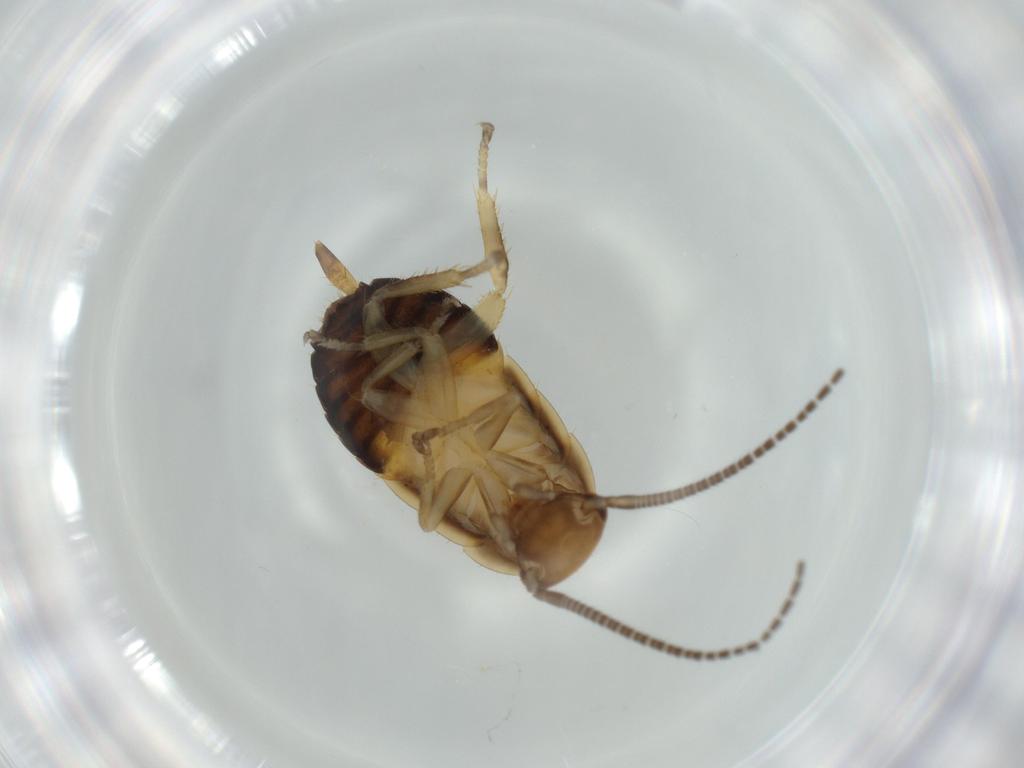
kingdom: Animalia
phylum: Arthropoda
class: Insecta
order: Blattodea
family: Ectobiidae
